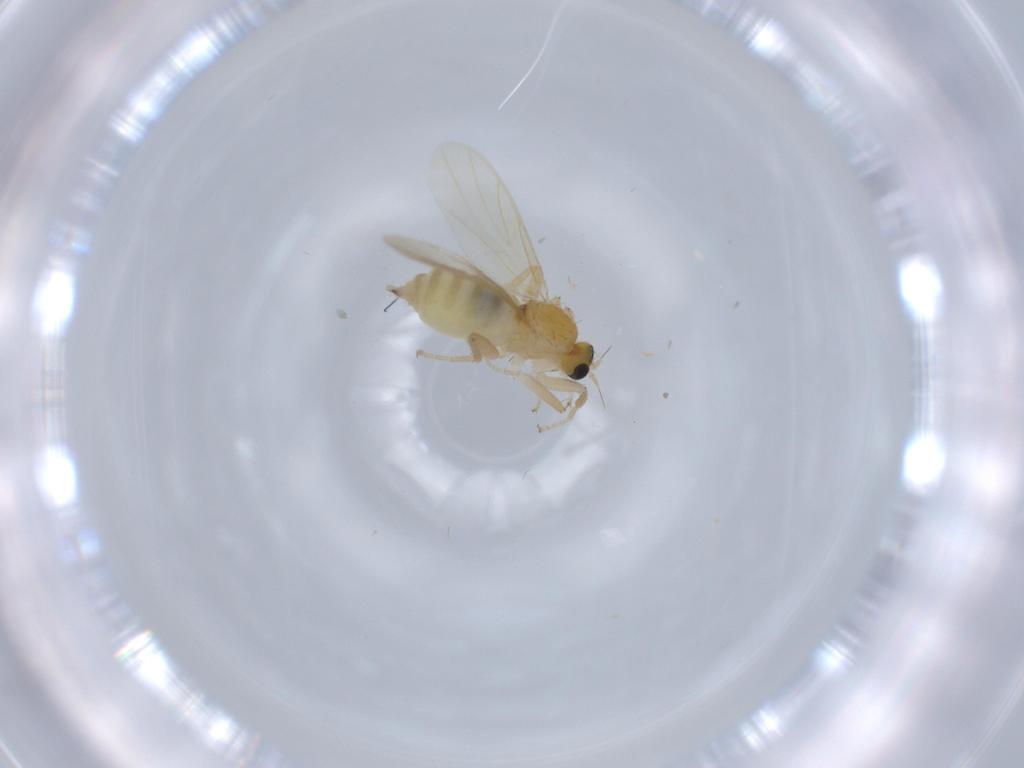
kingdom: Animalia
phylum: Arthropoda
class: Insecta
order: Diptera
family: Hybotidae
